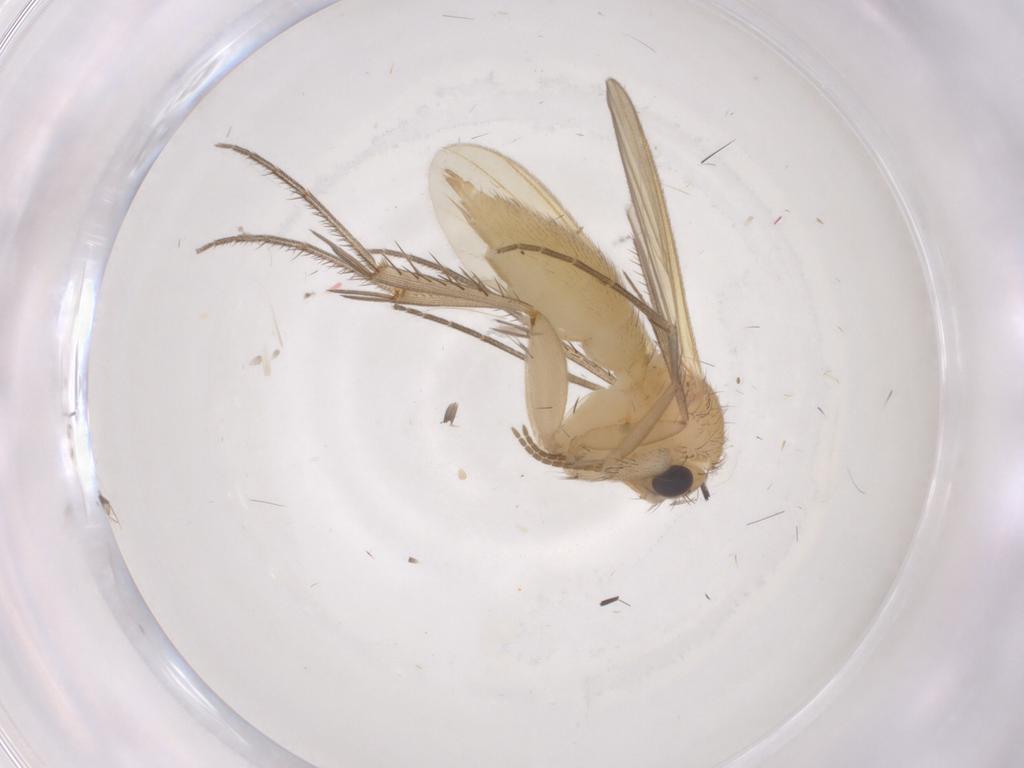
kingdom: Animalia
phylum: Arthropoda
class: Insecta
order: Diptera
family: Mycetophilidae
